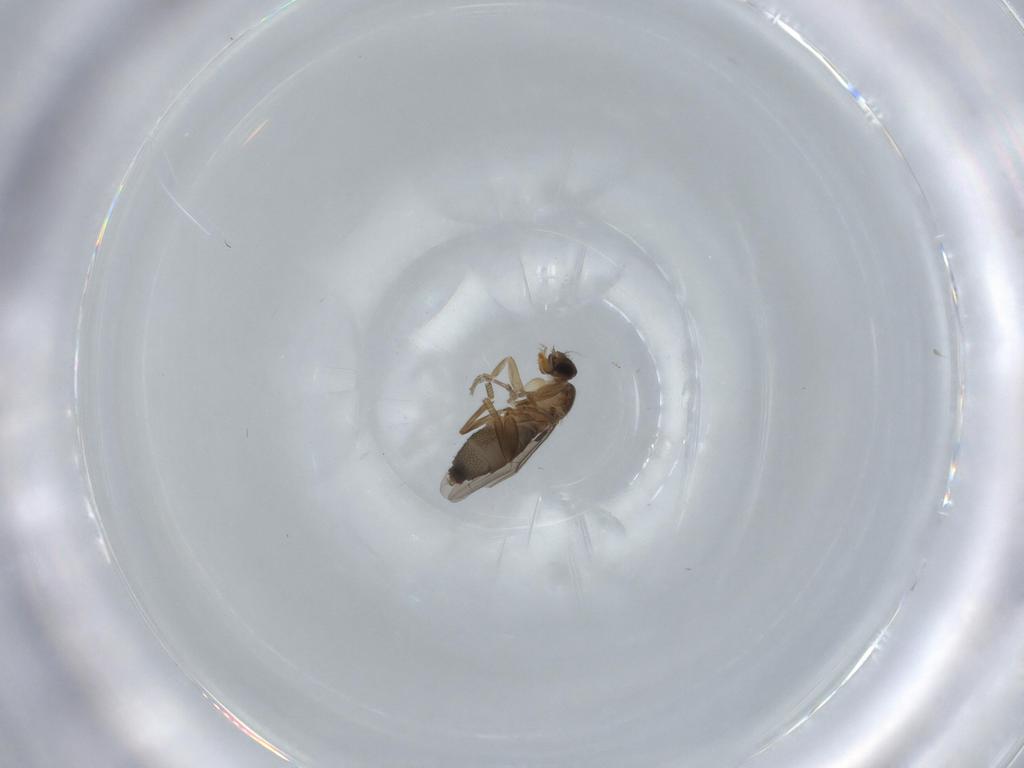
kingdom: Animalia
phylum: Arthropoda
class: Insecta
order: Diptera
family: Phoridae
